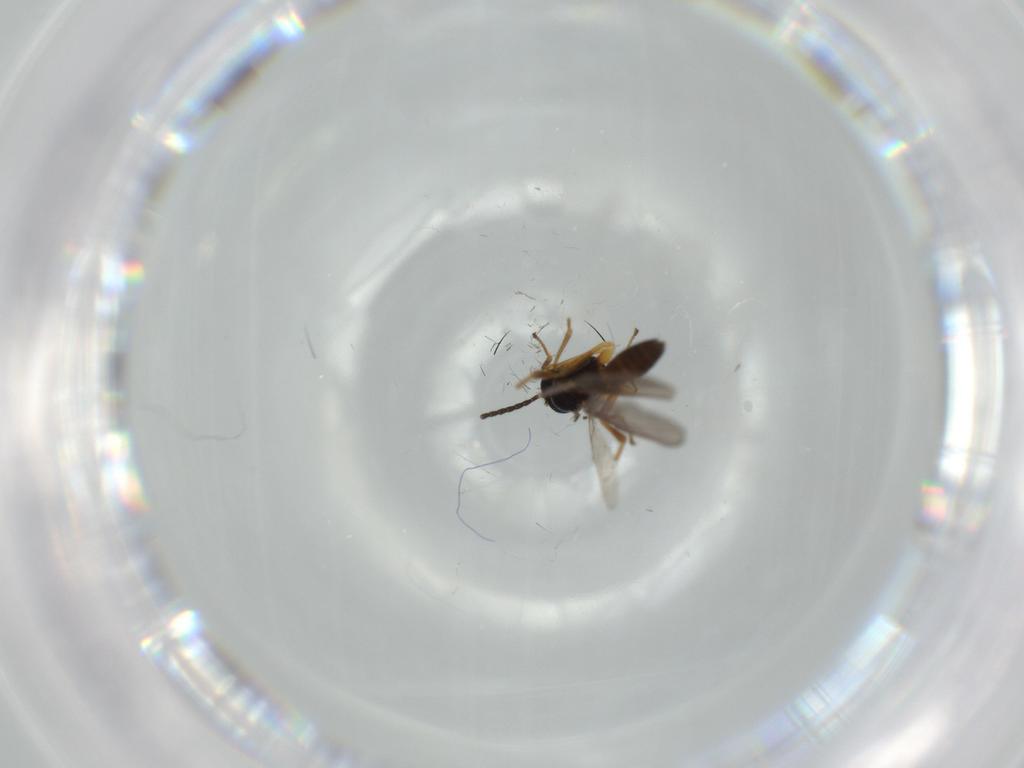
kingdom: Animalia
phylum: Arthropoda
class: Insecta
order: Hymenoptera
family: Braconidae
